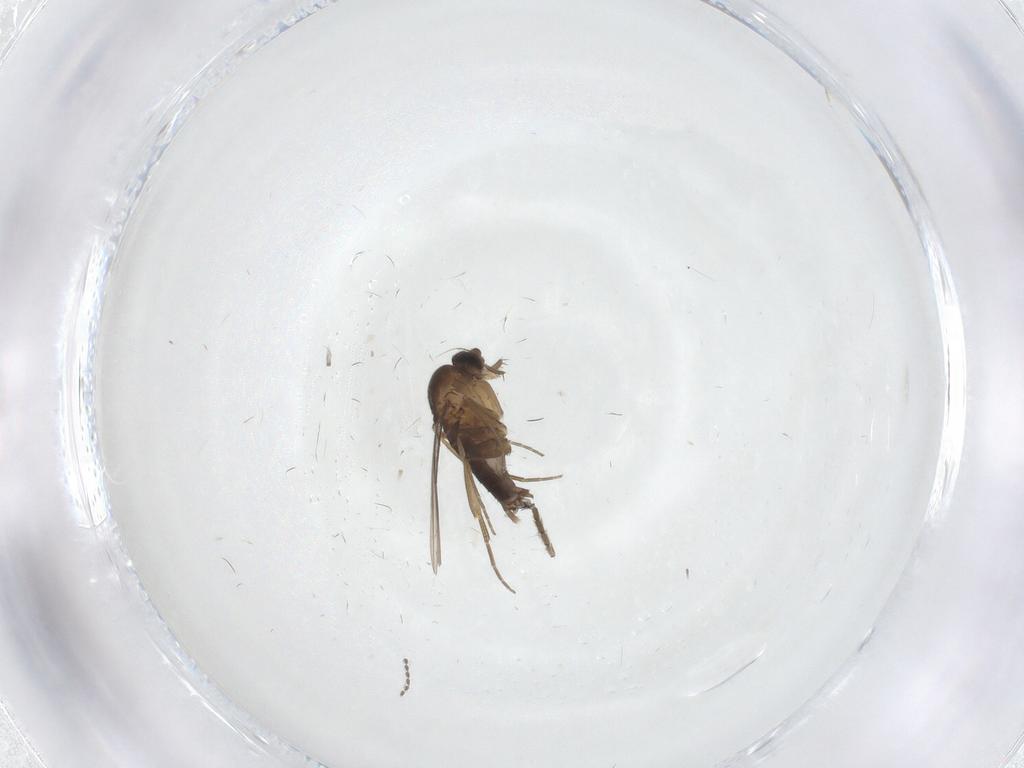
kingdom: Animalia
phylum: Arthropoda
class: Insecta
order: Diptera
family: Phoridae
